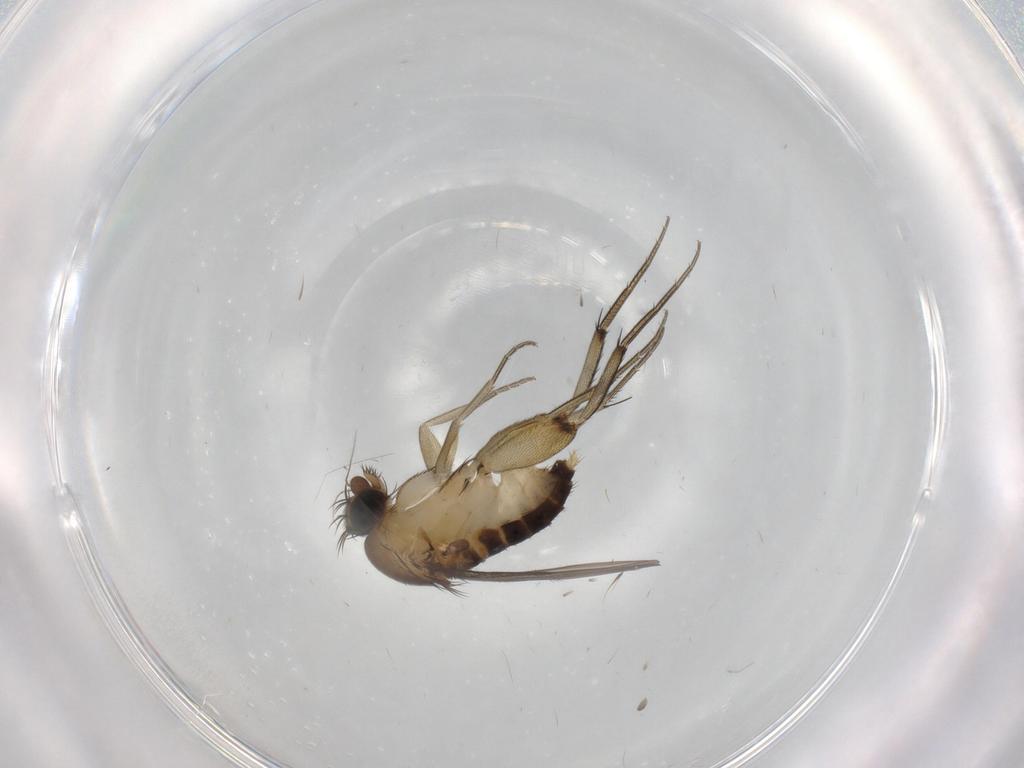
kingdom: Animalia
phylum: Arthropoda
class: Insecta
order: Diptera
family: Phoridae
